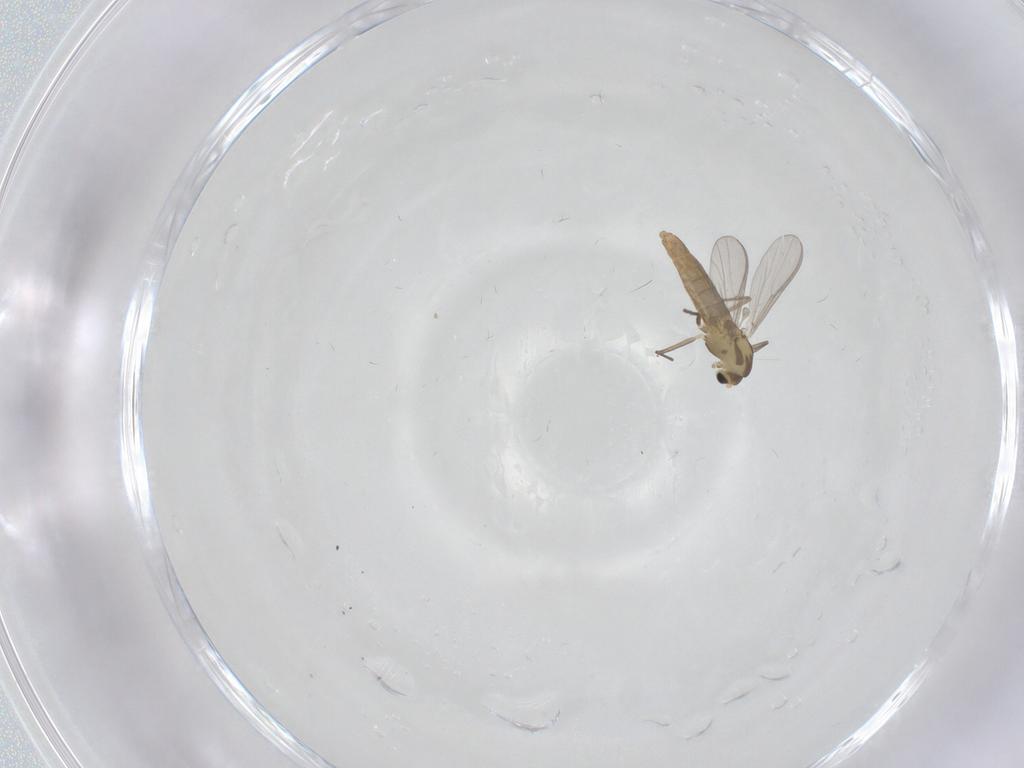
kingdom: Animalia
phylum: Arthropoda
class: Insecta
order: Diptera
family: Chironomidae
